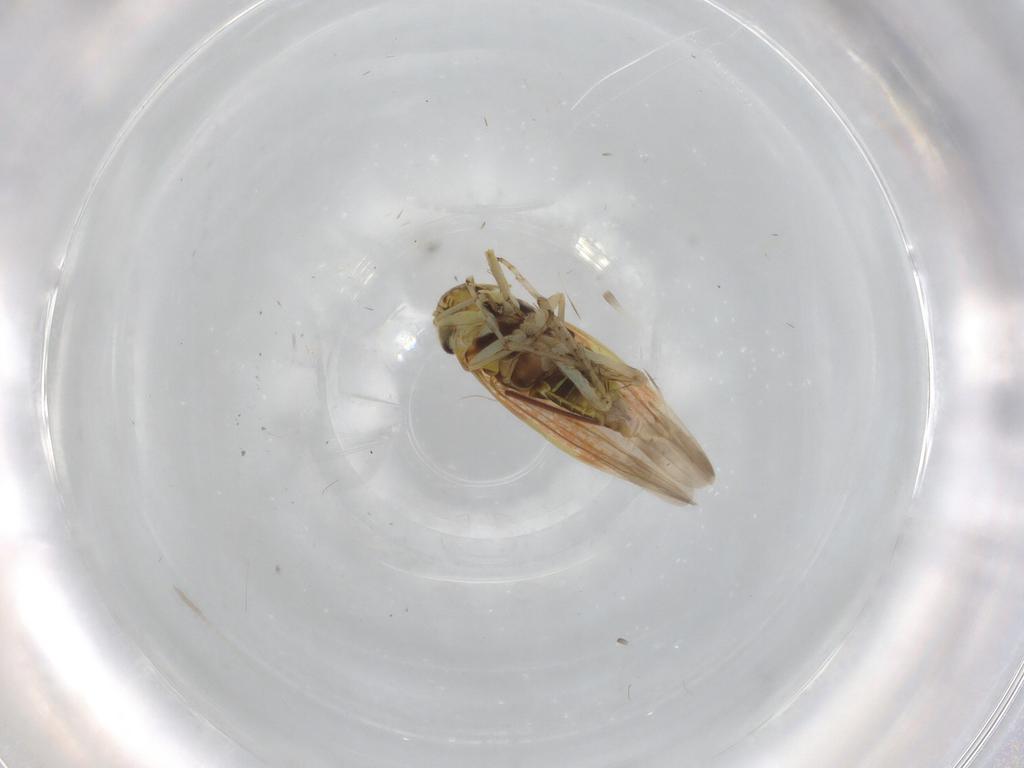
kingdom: Animalia
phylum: Arthropoda
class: Insecta
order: Hemiptera
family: Cicadellidae
